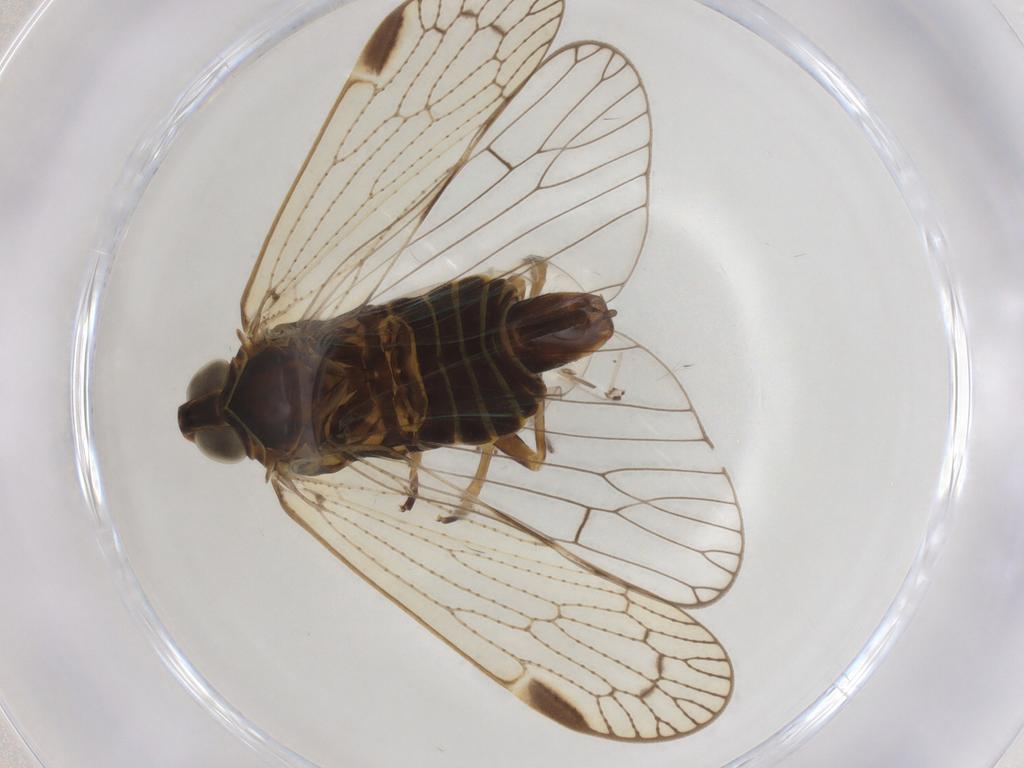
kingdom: Animalia
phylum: Arthropoda
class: Insecta
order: Hemiptera
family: Cixiidae
